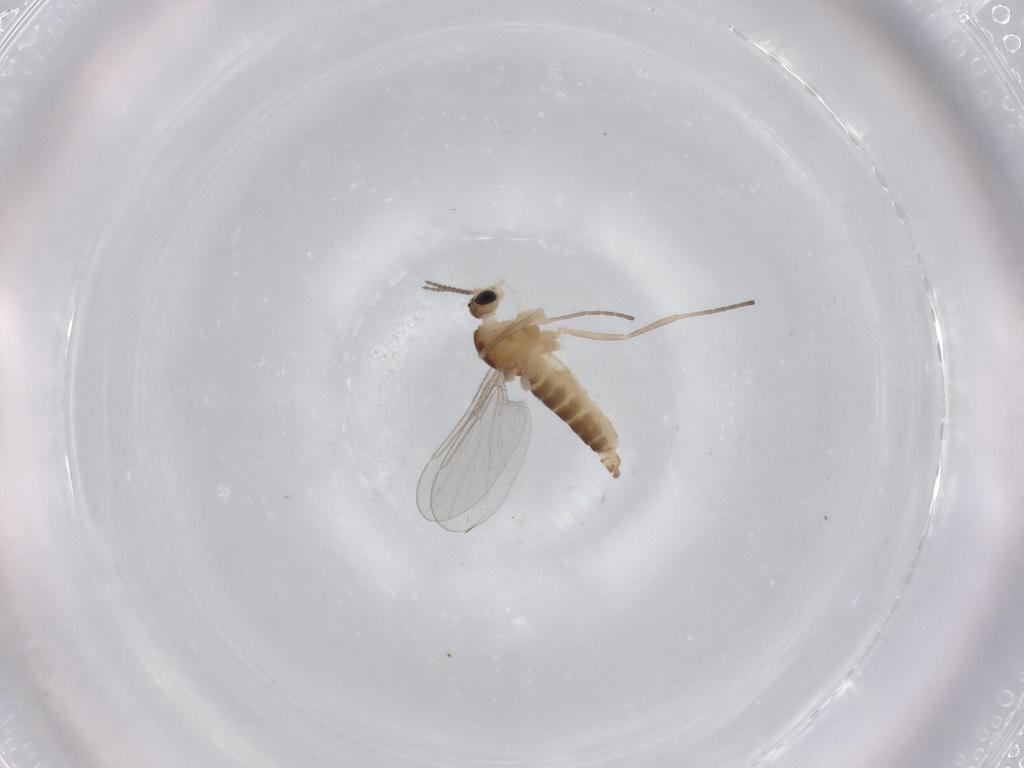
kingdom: Animalia
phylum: Arthropoda
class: Insecta
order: Diptera
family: Cecidomyiidae
